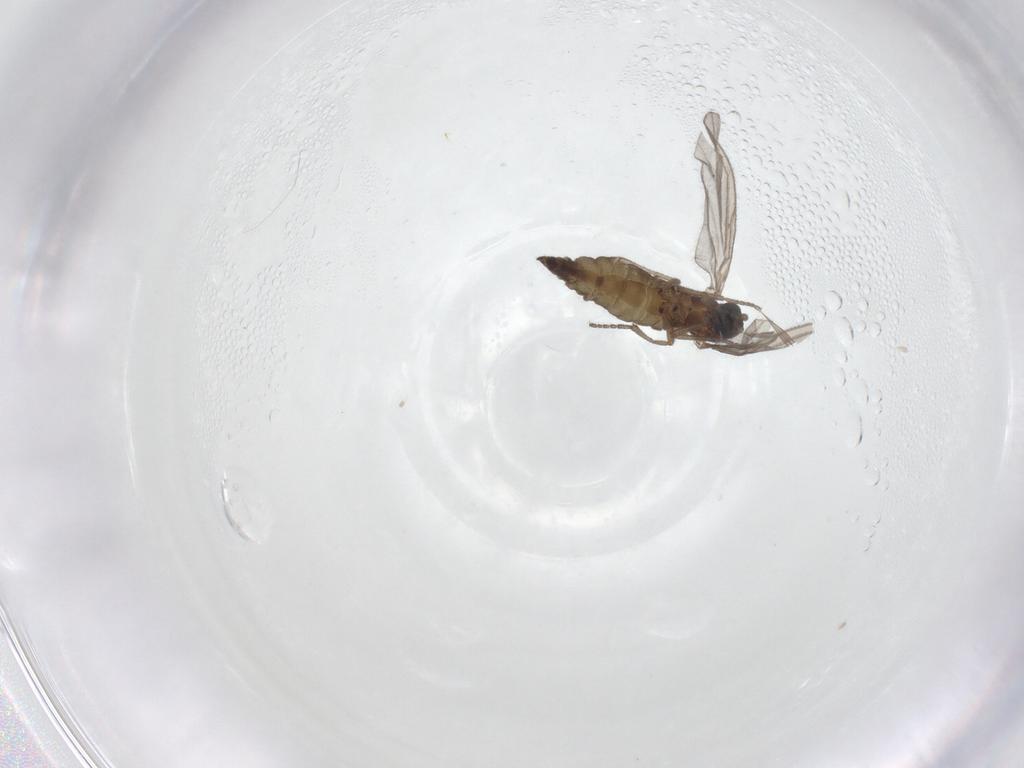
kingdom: Animalia
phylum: Arthropoda
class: Insecta
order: Diptera
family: Sciaridae
